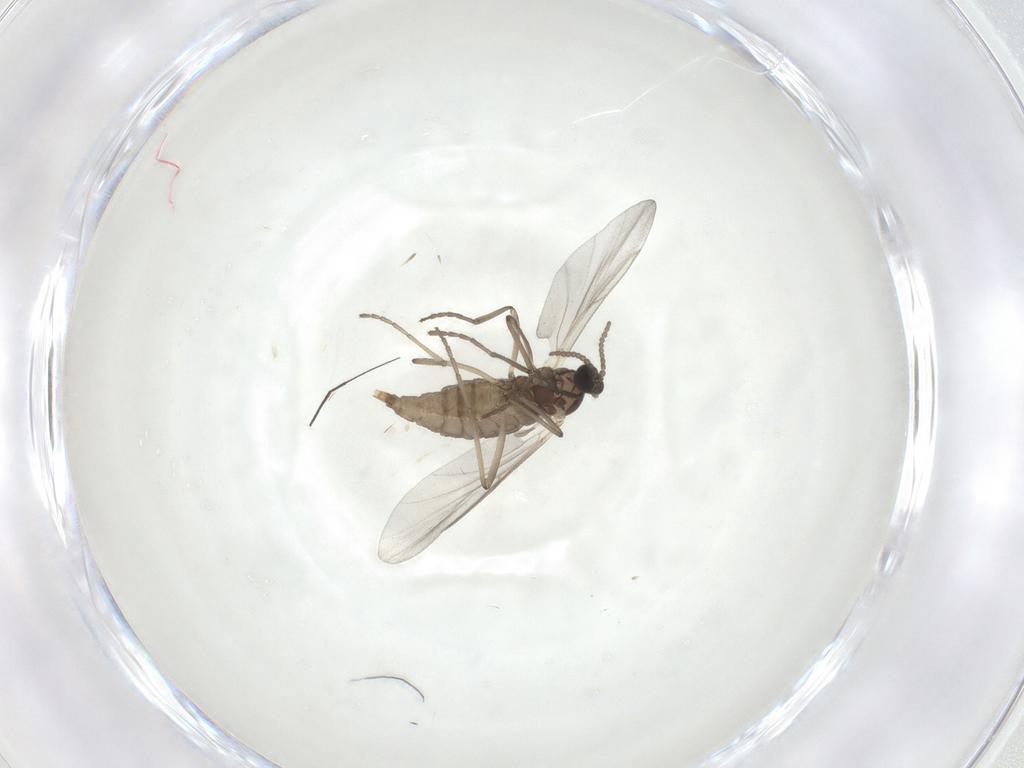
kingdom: Animalia
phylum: Arthropoda
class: Insecta
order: Diptera
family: Cecidomyiidae
